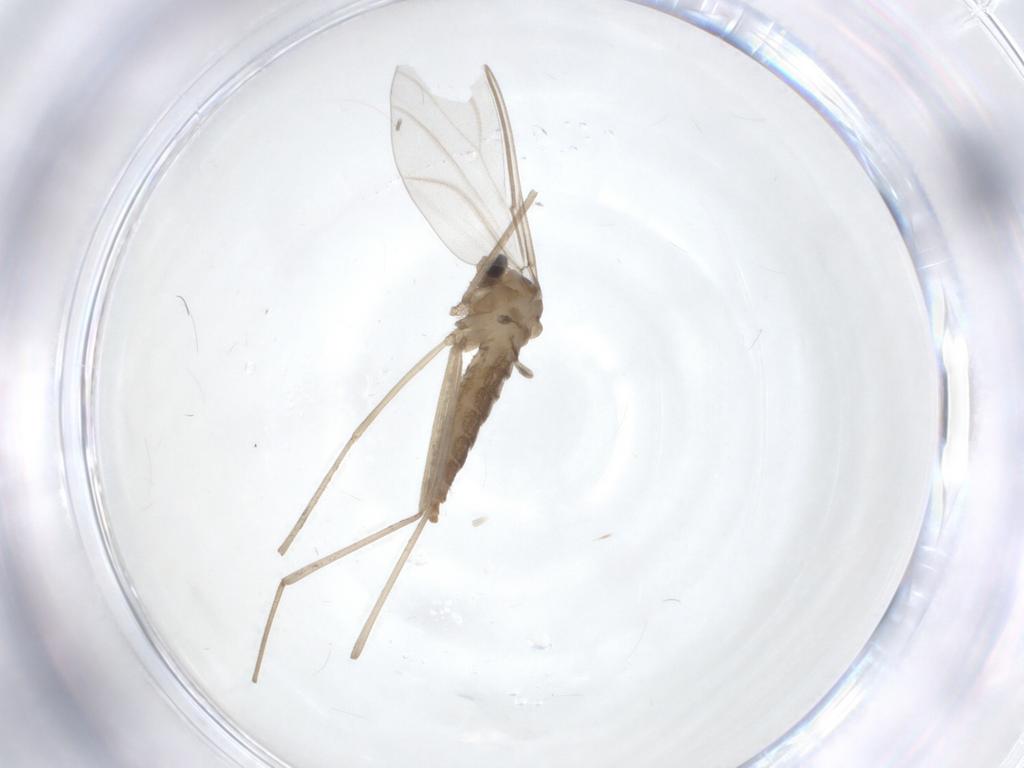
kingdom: Animalia
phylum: Arthropoda
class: Insecta
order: Diptera
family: Cecidomyiidae
